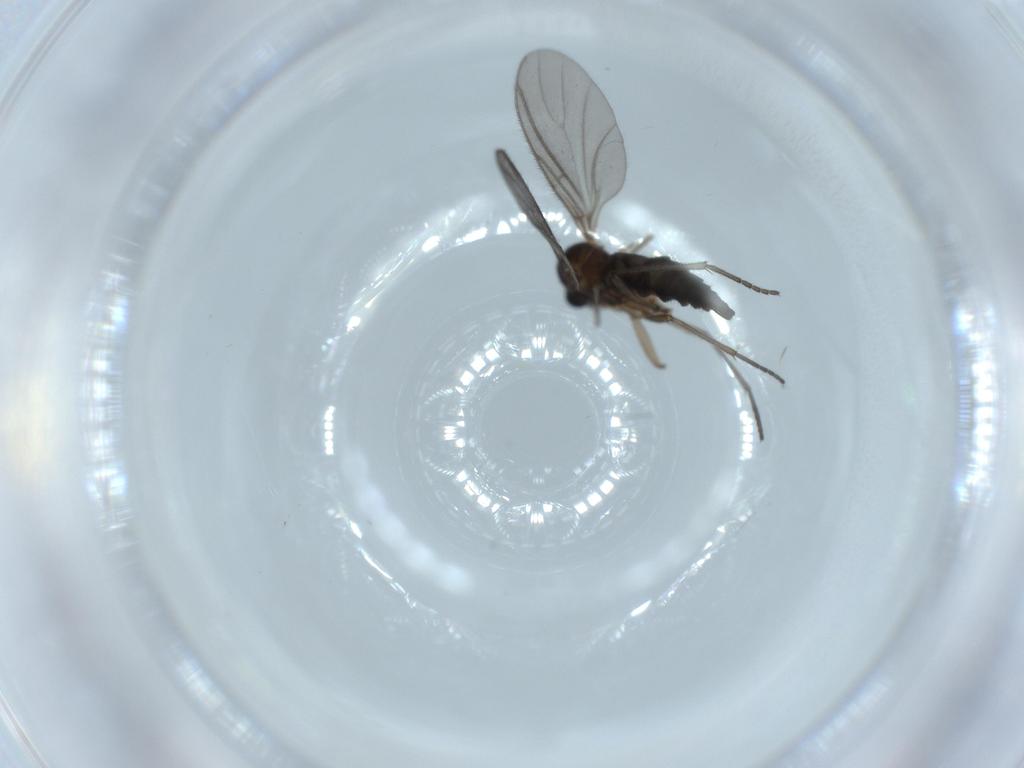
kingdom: Animalia
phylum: Arthropoda
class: Insecta
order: Diptera
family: Sciaridae
